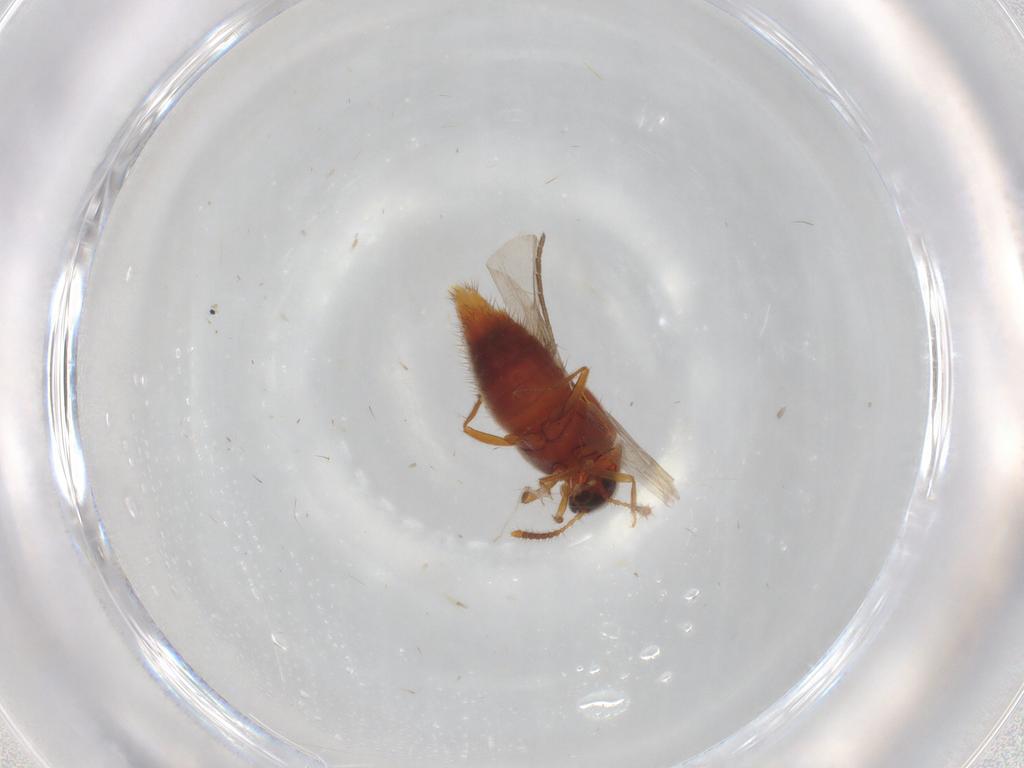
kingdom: Animalia
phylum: Arthropoda
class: Insecta
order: Coleoptera
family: Staphylinidae
